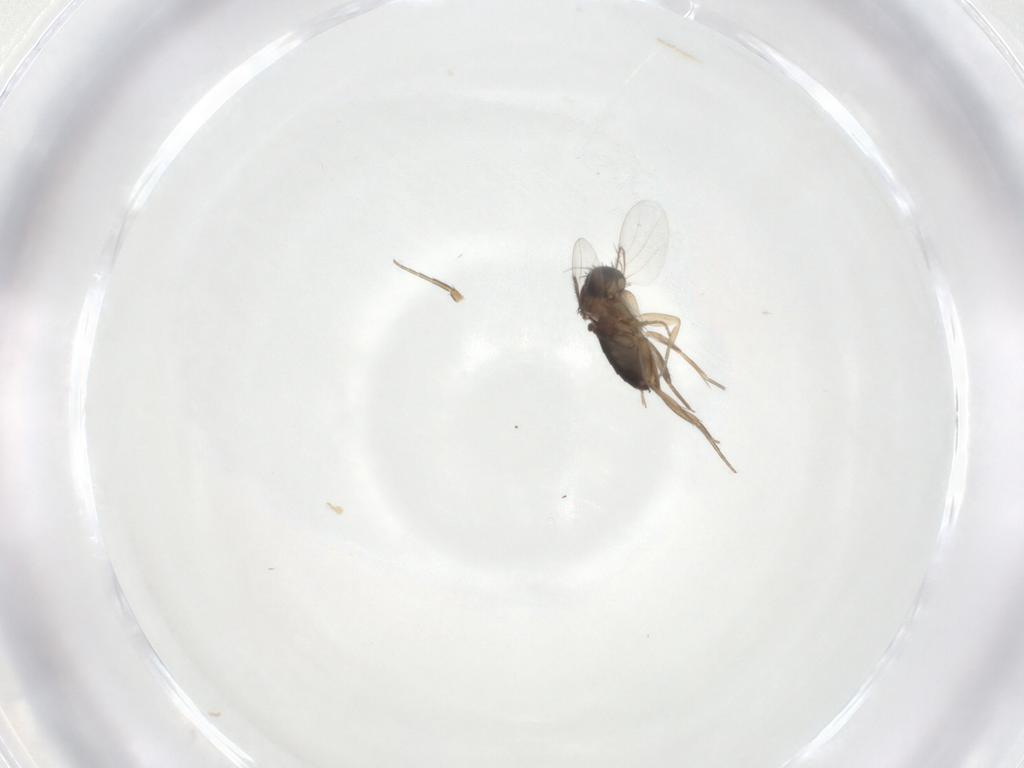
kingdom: Animalia
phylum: Arthropoda
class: Insecta
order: Diptera
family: Phoridae
